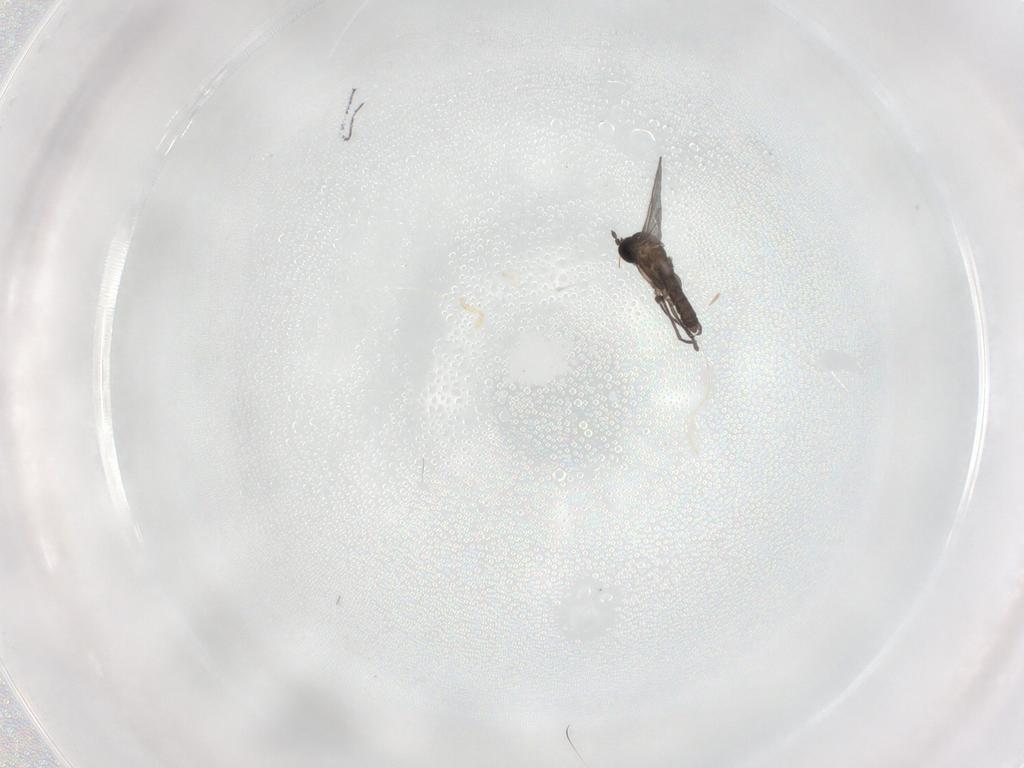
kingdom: Animalia
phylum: Arthropoda
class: Insecta
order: Diptera
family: Sciaridae
